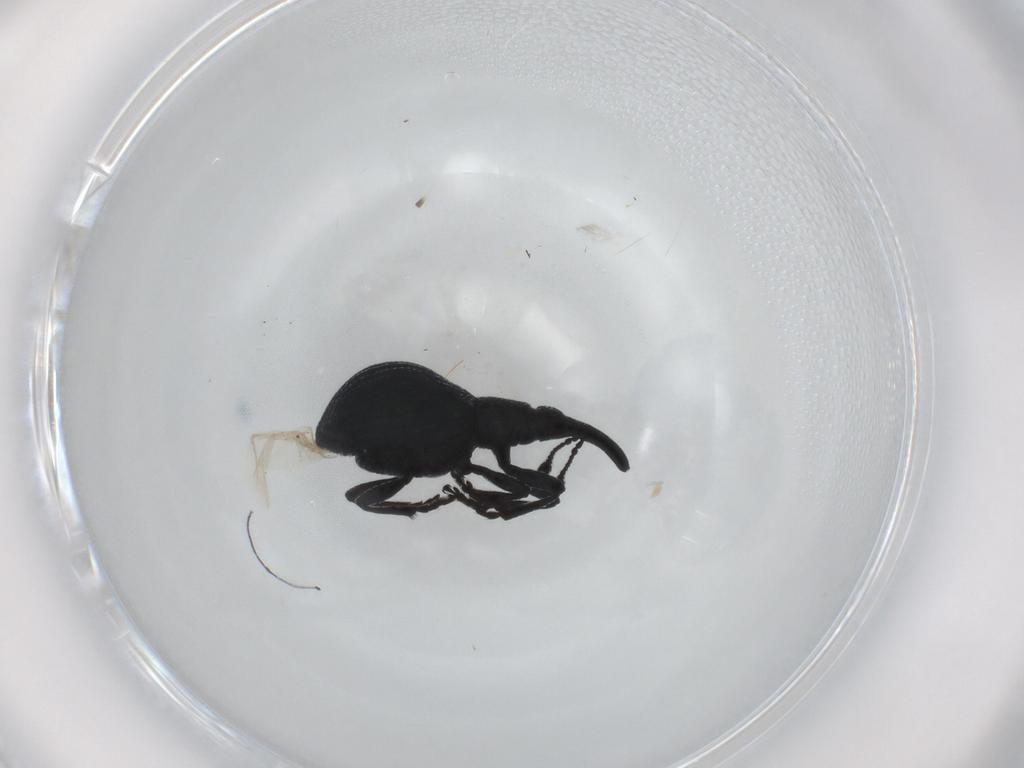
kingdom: Animalia
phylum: Arthropoda
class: Insecta
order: Coleoptera
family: Brentidae
